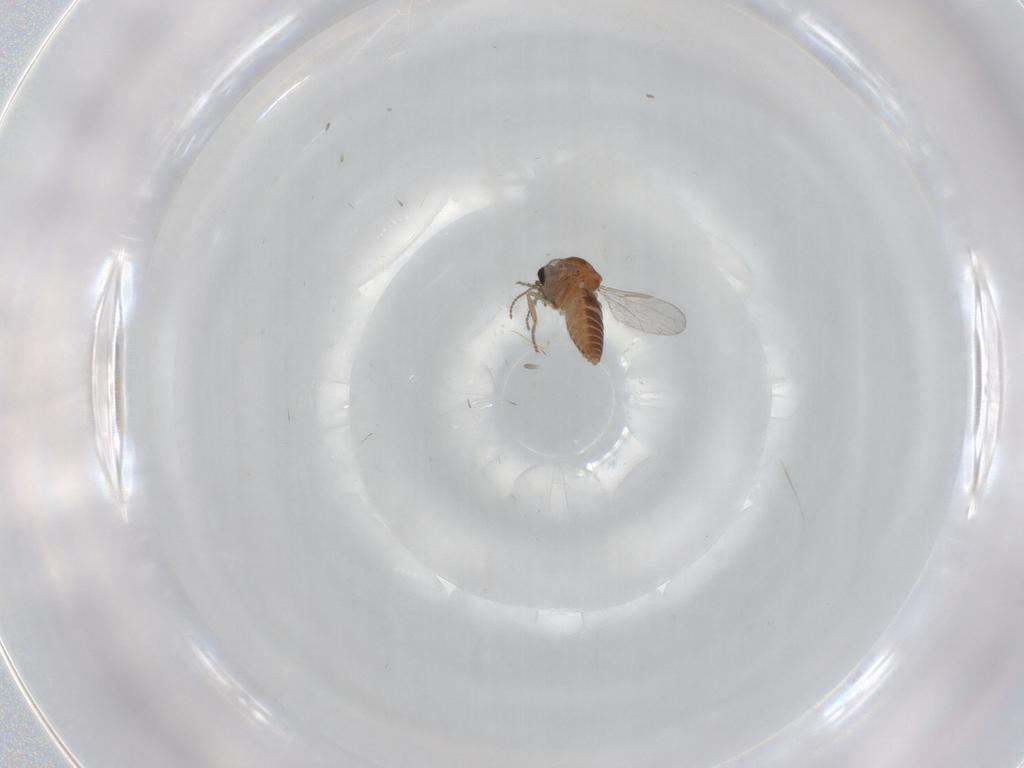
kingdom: Animalia
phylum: Arthropoda
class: Insecta
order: Diptera
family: Ceratopogonidae
